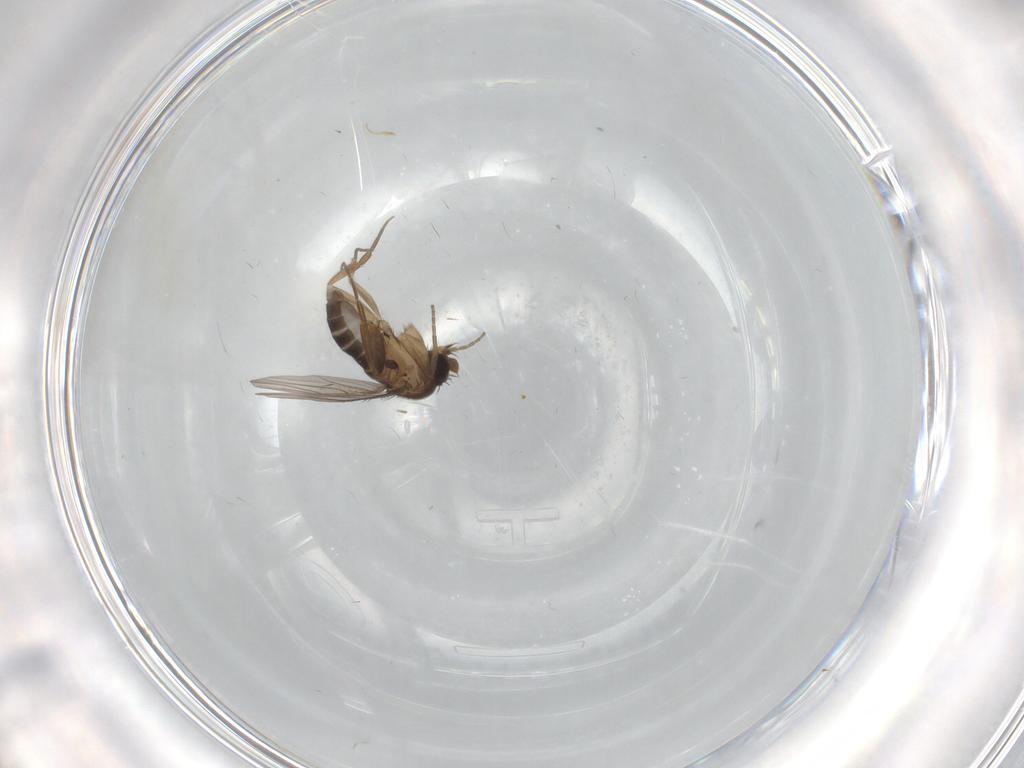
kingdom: Animalia
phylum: Arthropoda
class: Insecta
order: Diptera
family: Phoridae
